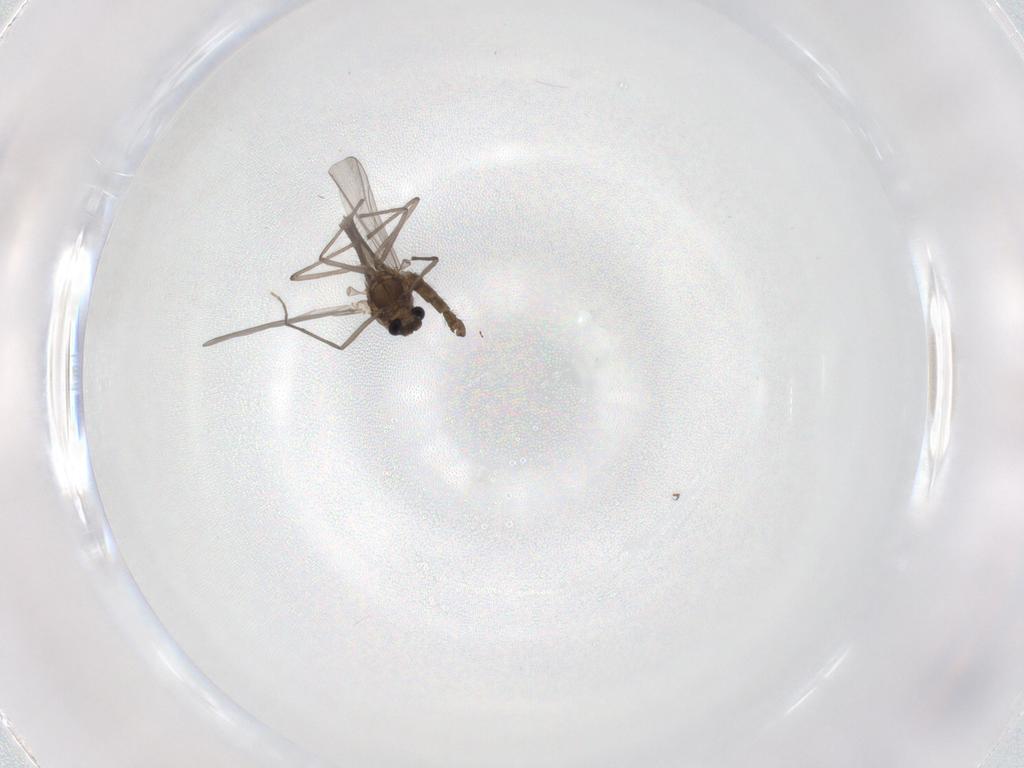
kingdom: Animalia
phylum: Arthropoda
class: Insecta
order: Diptera
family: Chironomidae
